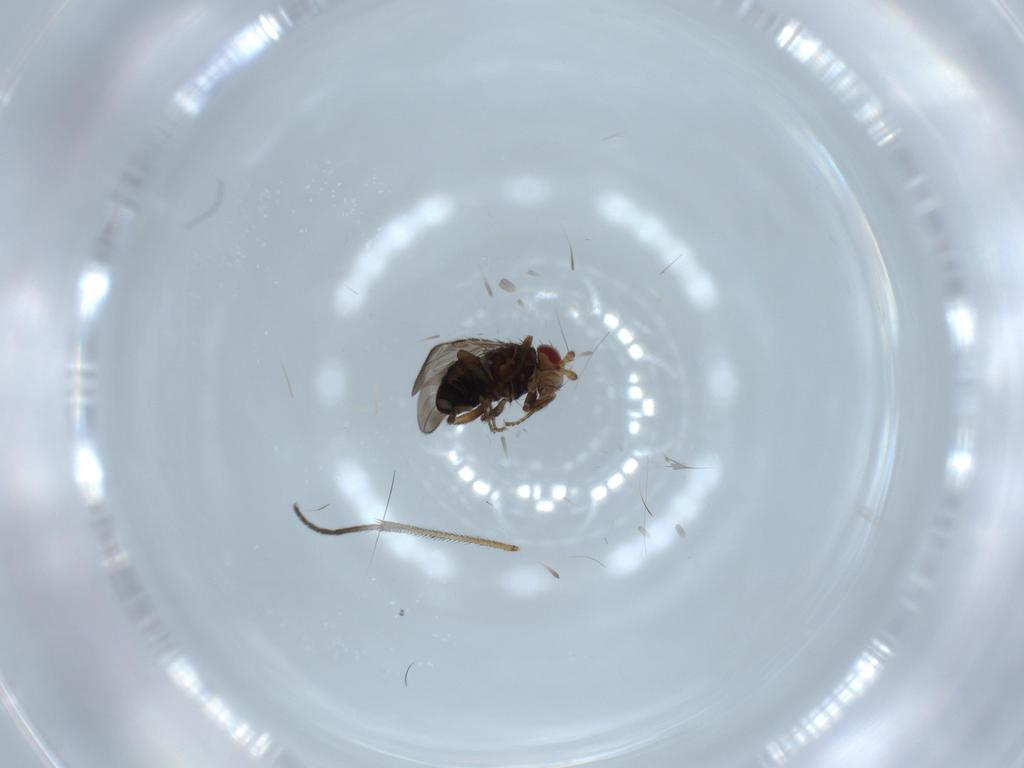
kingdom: Animalia
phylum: Arthropoda
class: Insecta
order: Diptera
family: Sciaridae
